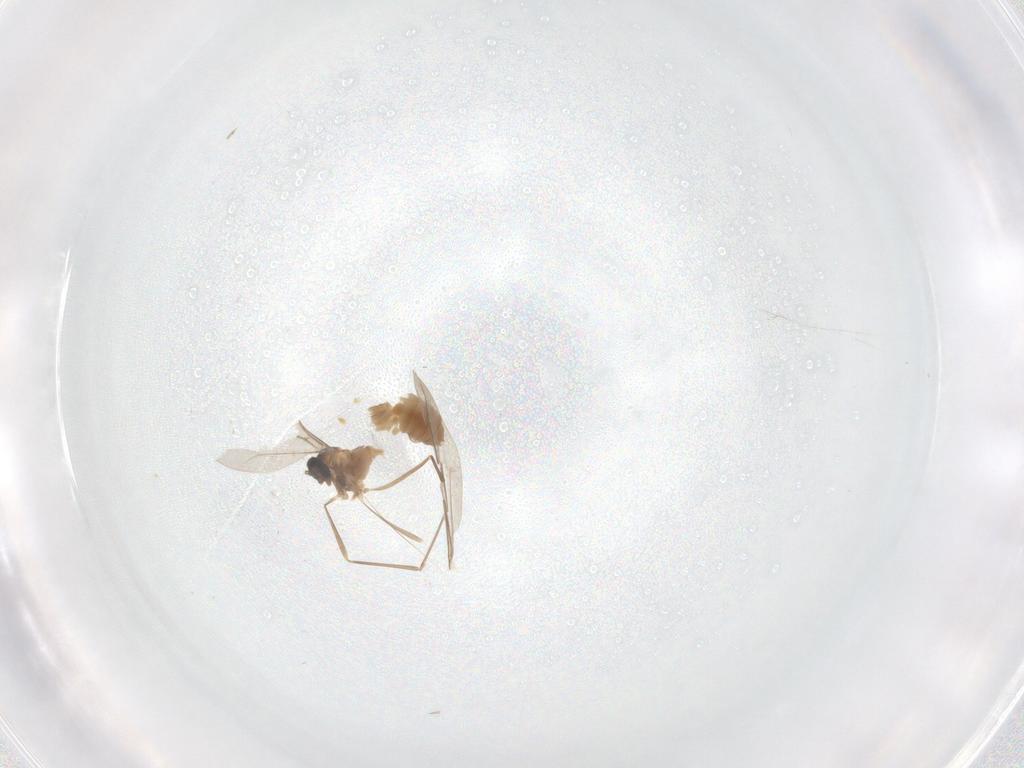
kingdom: Animalia
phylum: Arthropoda
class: Insecta
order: Diptera
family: Cecidomyiidae
